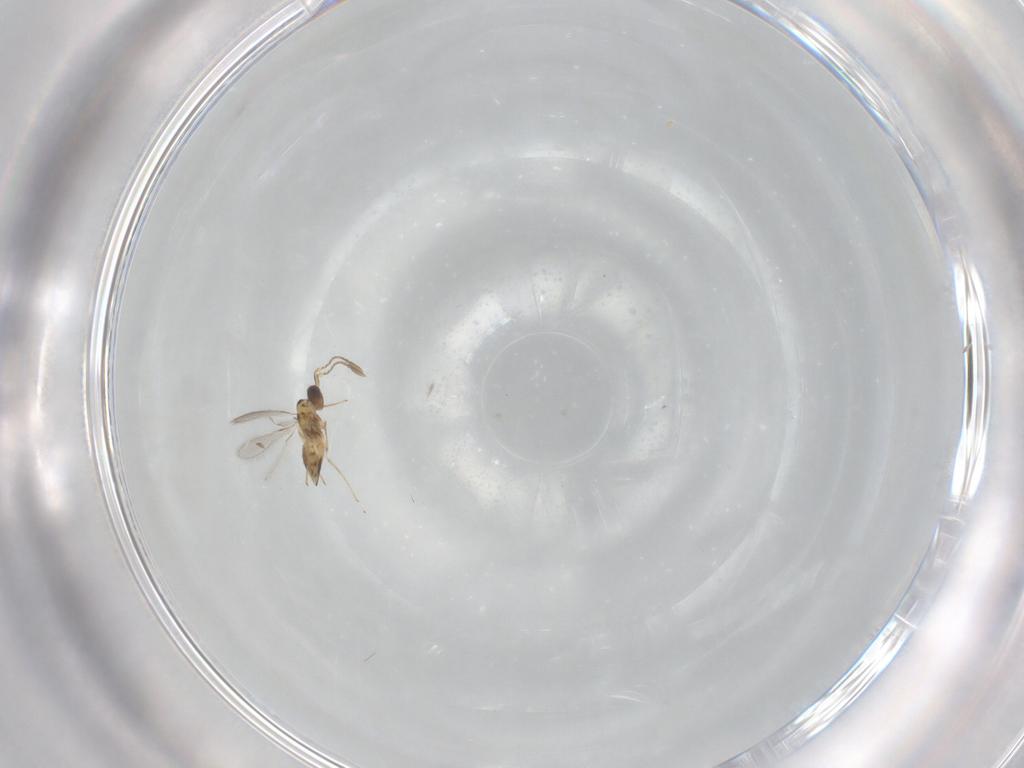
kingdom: Animalia
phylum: Arthropoda
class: Insecta
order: Hymenoptera
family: Mymaridae
